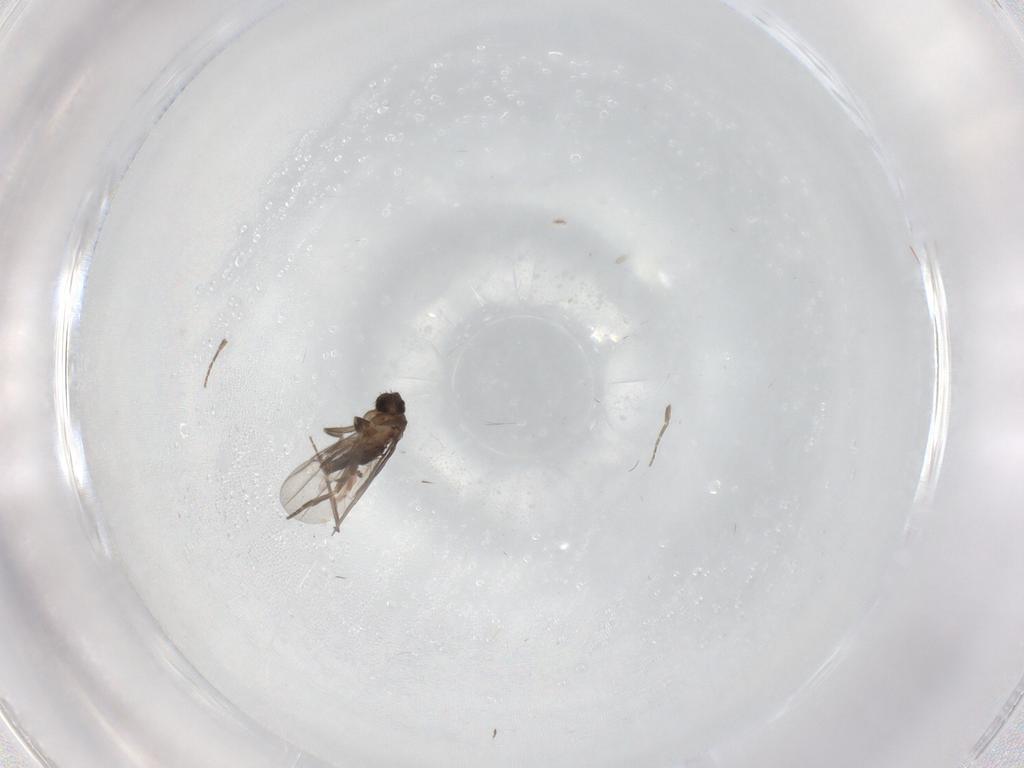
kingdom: Animalia
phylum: Arthropoda
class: Insecta
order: Diptera
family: Sciaridae
